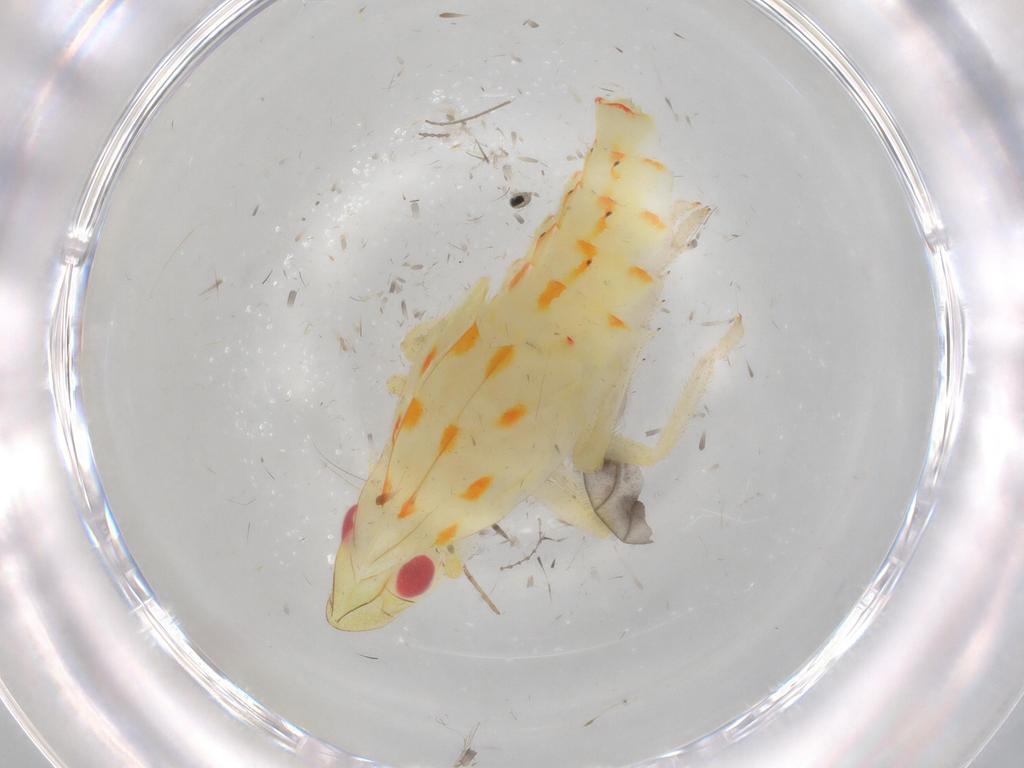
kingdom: Animalia
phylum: Arthropoda
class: Insecta
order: Hemiptera
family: Tropiduchidae
